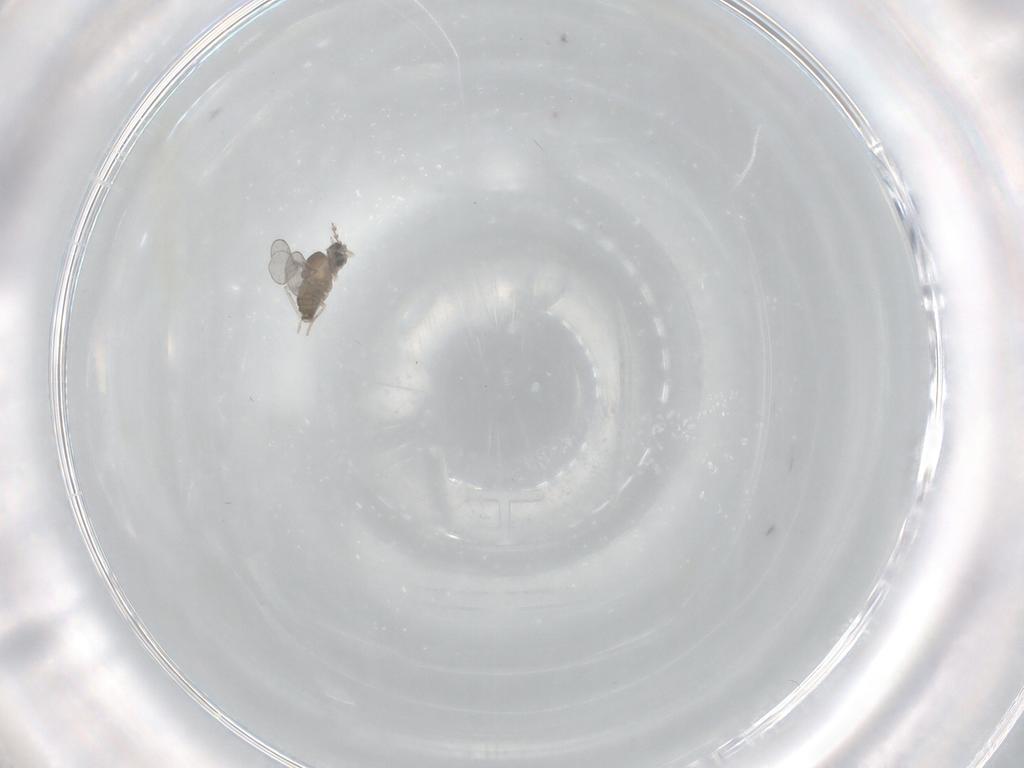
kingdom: Animalia
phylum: Arthropoda
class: Insecta
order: Diptera
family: Cecidomyiidae
